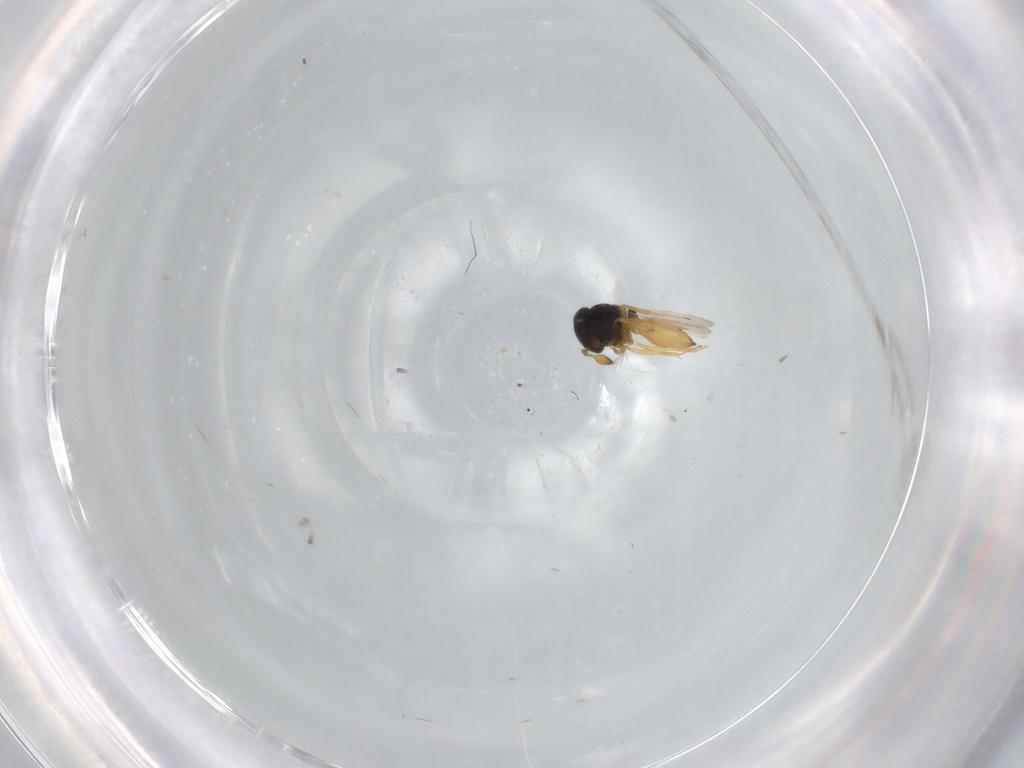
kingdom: Animalia
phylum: Arthropoda
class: Insecta
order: Hymenoptera
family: Scelionidae
